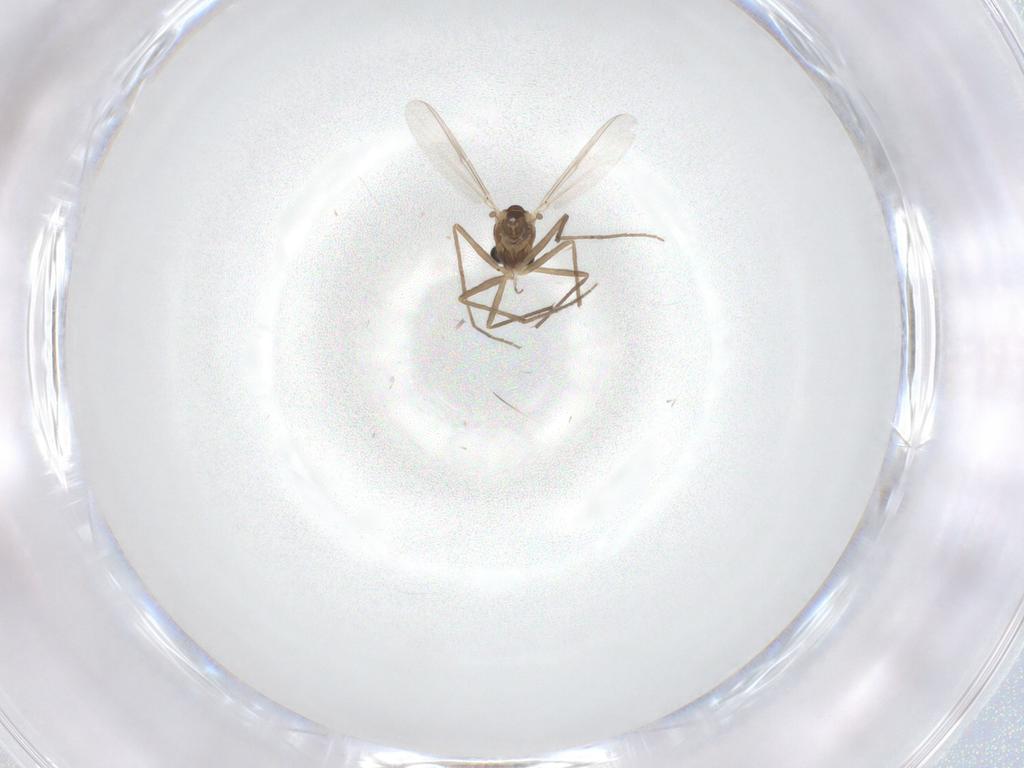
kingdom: Animalia
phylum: Arthropoda
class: Insecta
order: Diptera
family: Chironomidae
